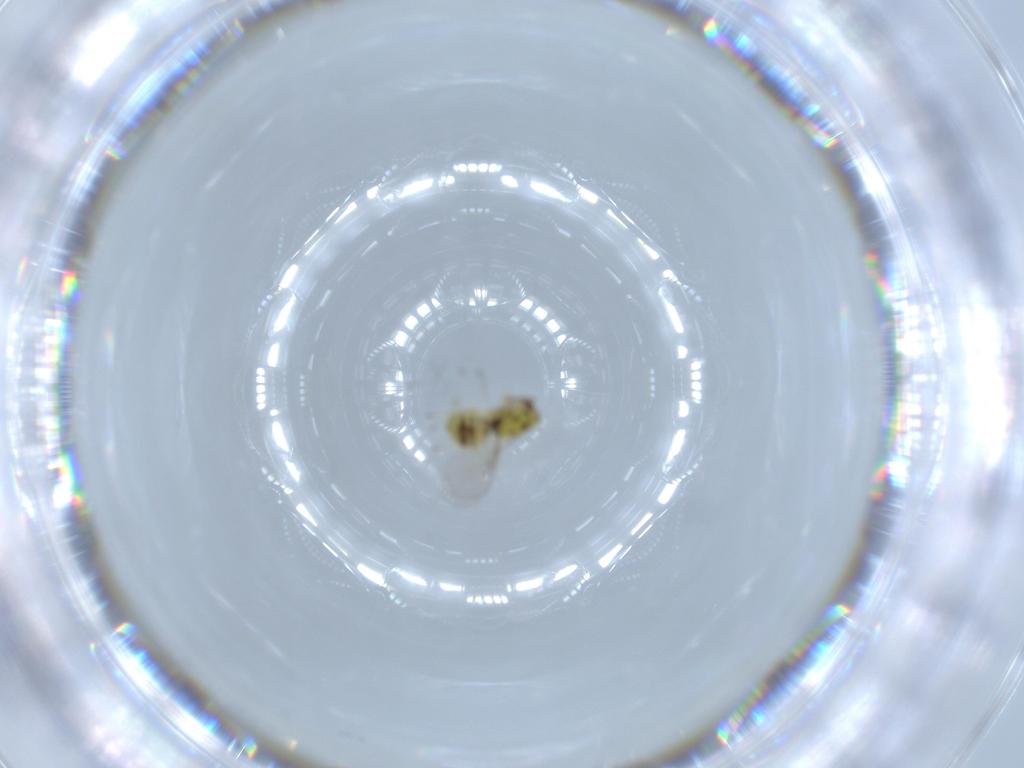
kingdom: Animalia
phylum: Arthropoda
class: Insecta
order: Hymenoptera
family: Eulophidae
